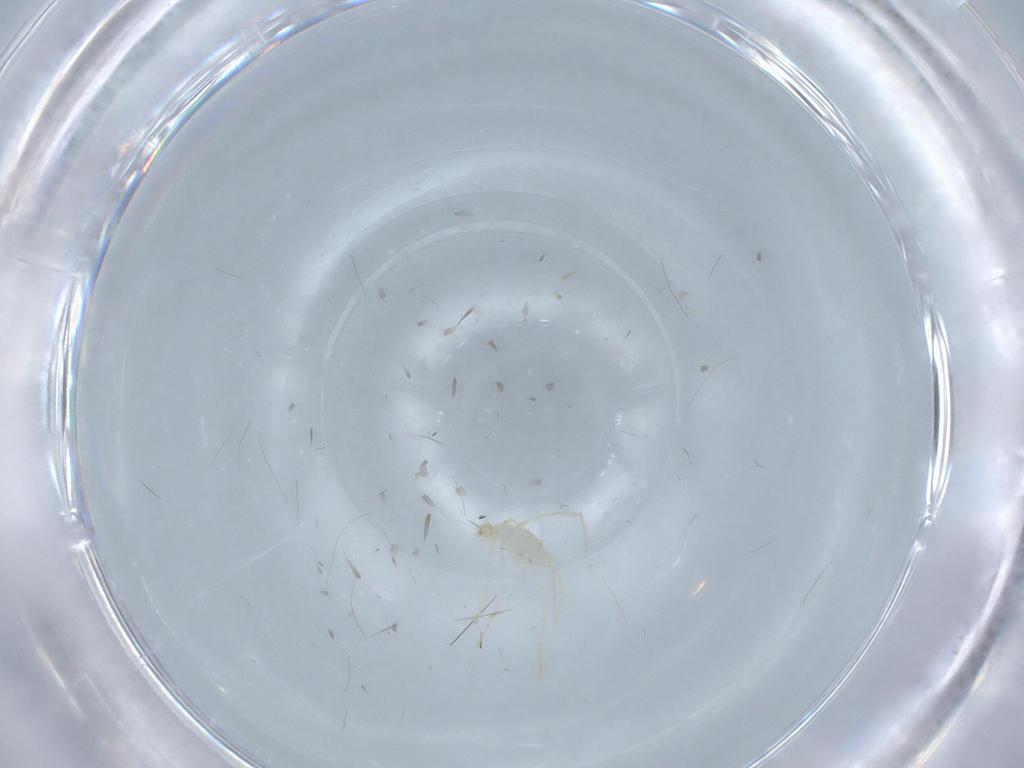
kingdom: Animalia
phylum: Arthropoda
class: Arachnida
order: Trombidiformes
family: Erythraeidae
